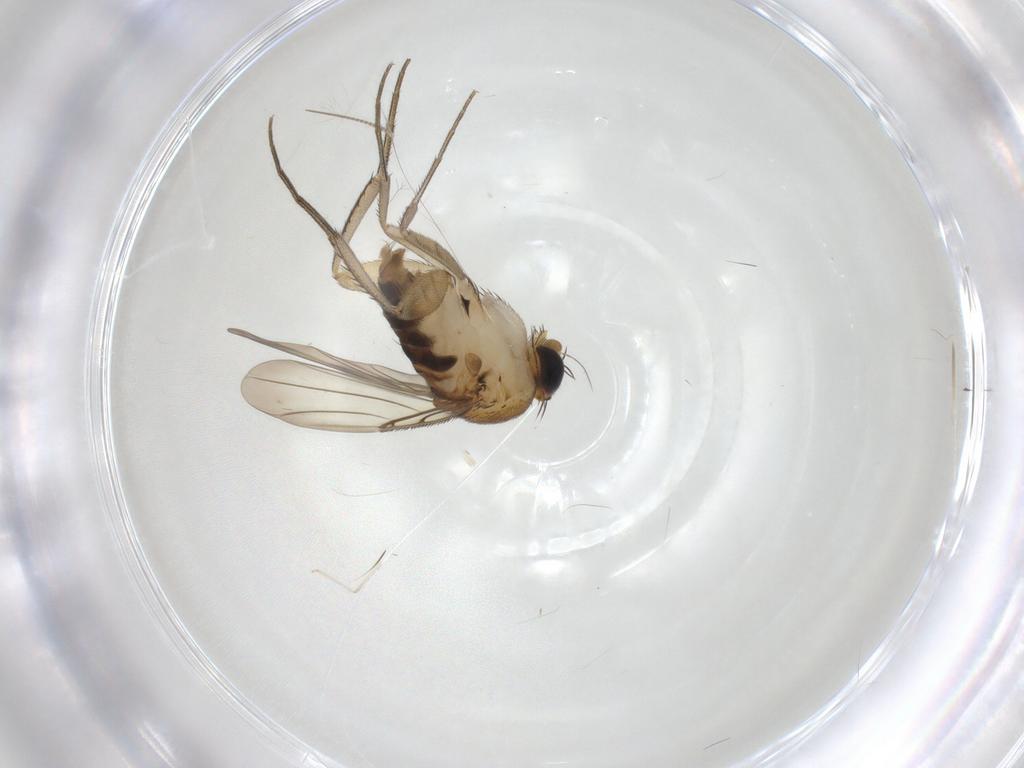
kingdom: Animalia
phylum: Arthropoda
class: Insecta
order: Diptera
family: Phoridae
